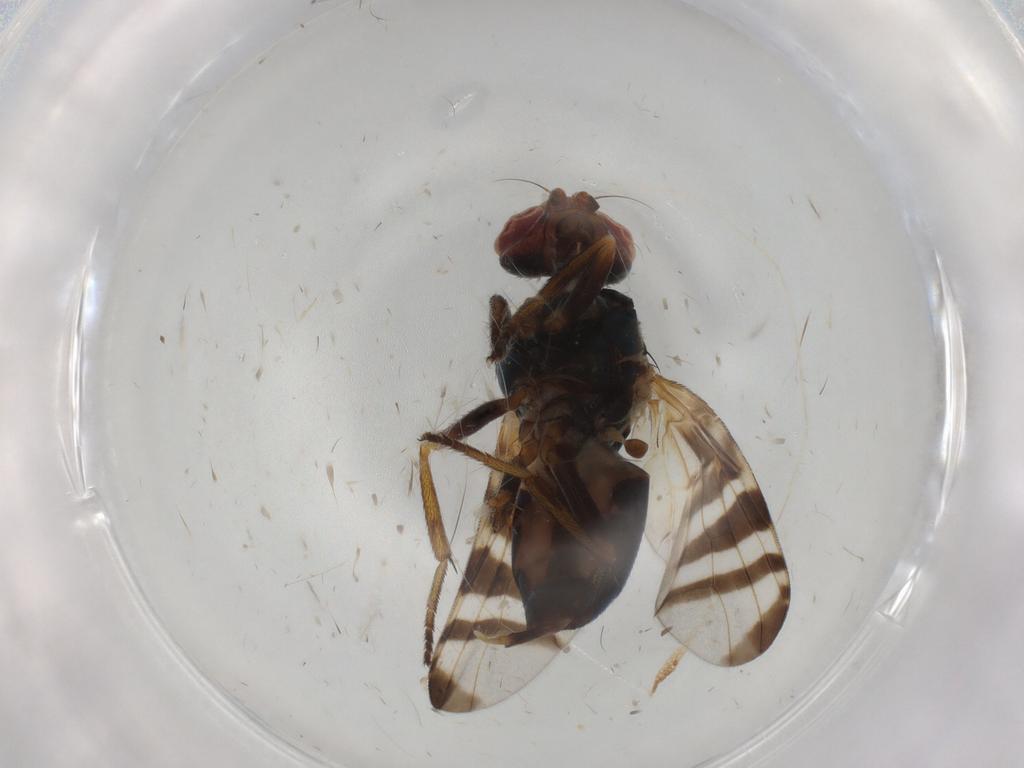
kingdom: Animalia
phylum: Arthropoda
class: Insecta
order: Diptera
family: Platystomatidae
